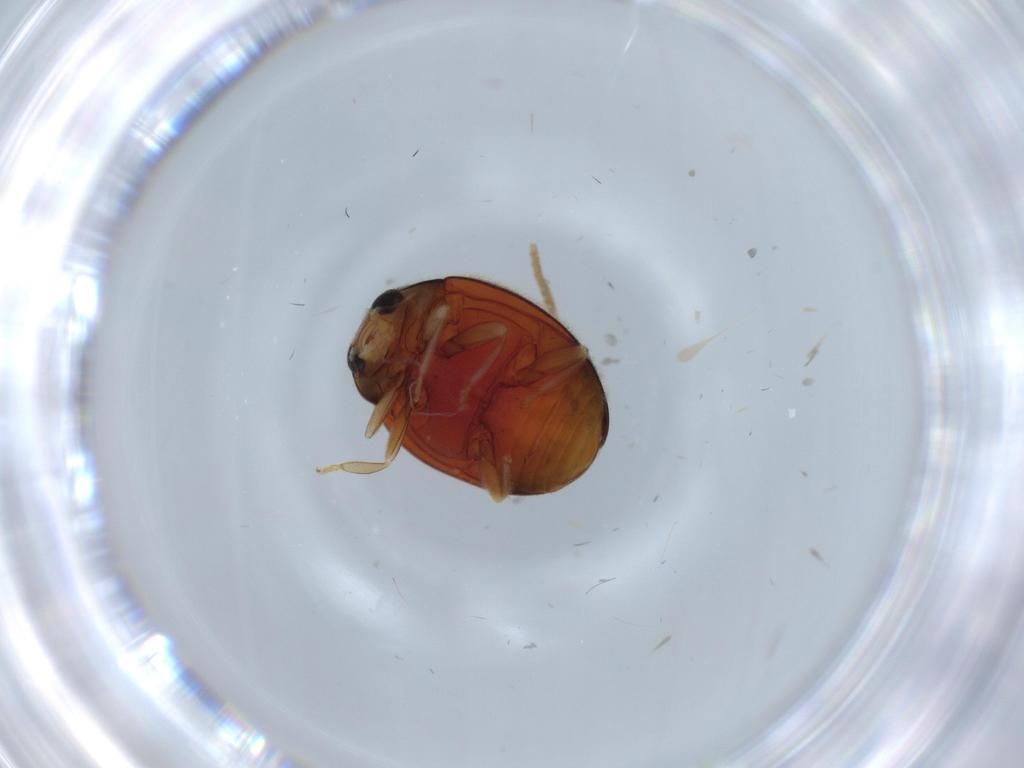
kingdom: Animalia
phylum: Arthropoda
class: Insecta
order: Coleoptera
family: Coccinellidae
